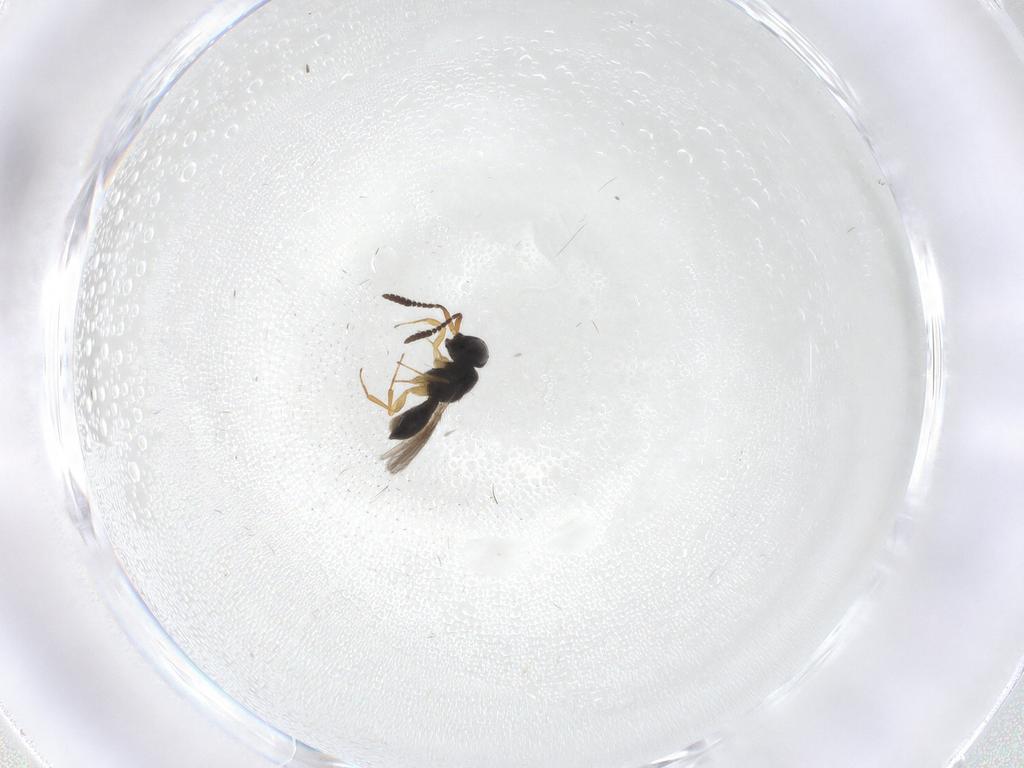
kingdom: Animalia
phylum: Arthropoda
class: Insecta
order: Hymenoptera
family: Scelionidae
